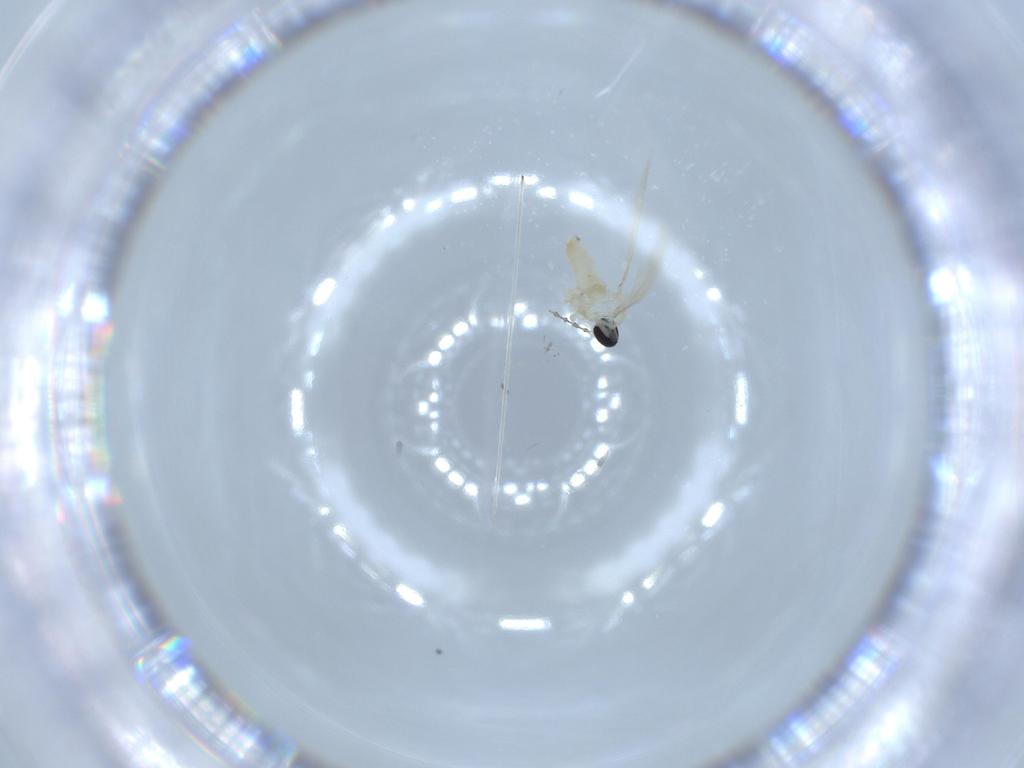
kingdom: Animalia
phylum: Arthropoda
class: Insecta
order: Diptera
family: Cecidomyiidae
